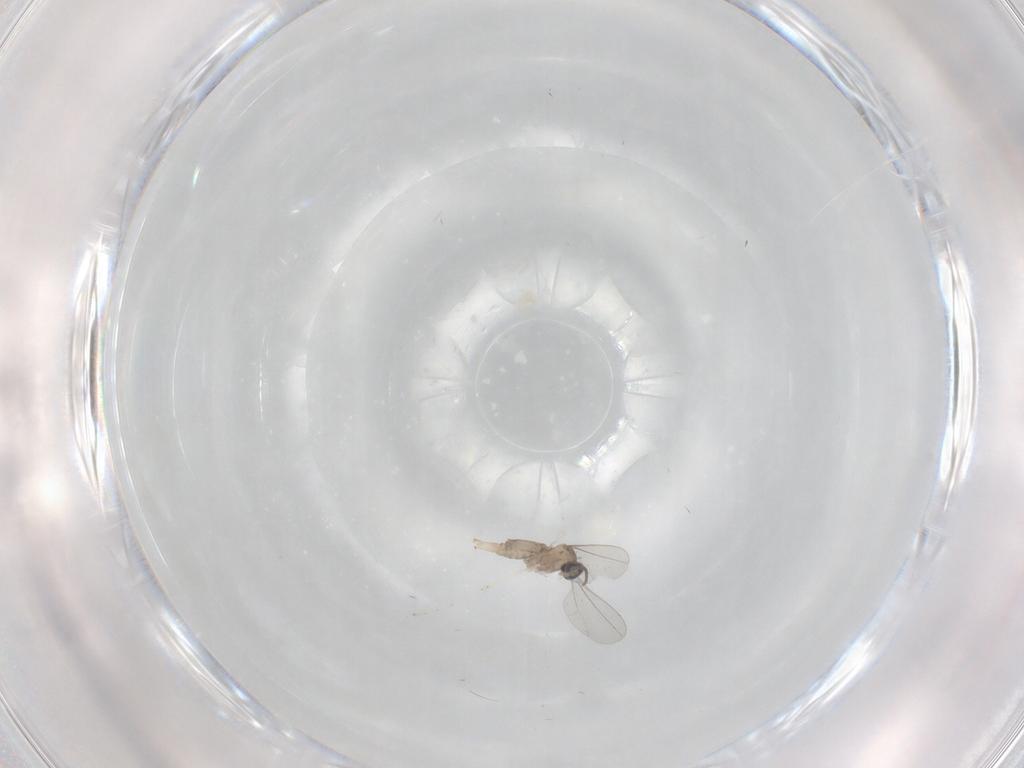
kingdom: Animalia
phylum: Arthropoda
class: Insecta
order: Diptera
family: Cecidomyiidae
